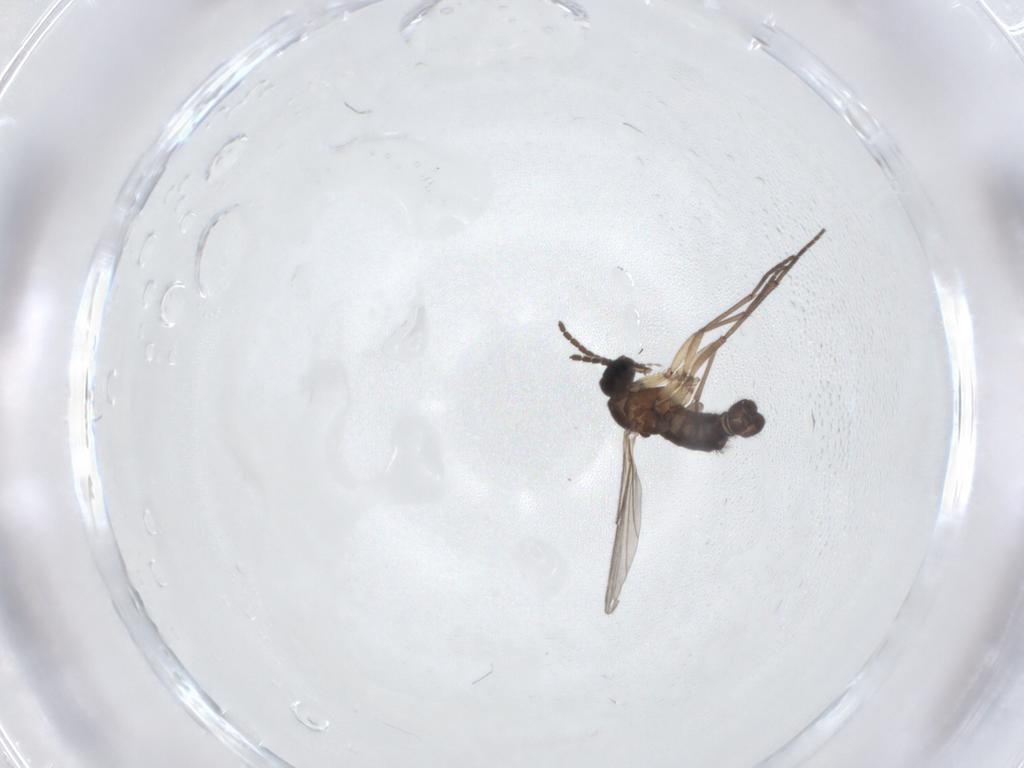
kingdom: Animalia
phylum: Arthropoda
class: Insecta
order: Diptera
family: Sciaridae
